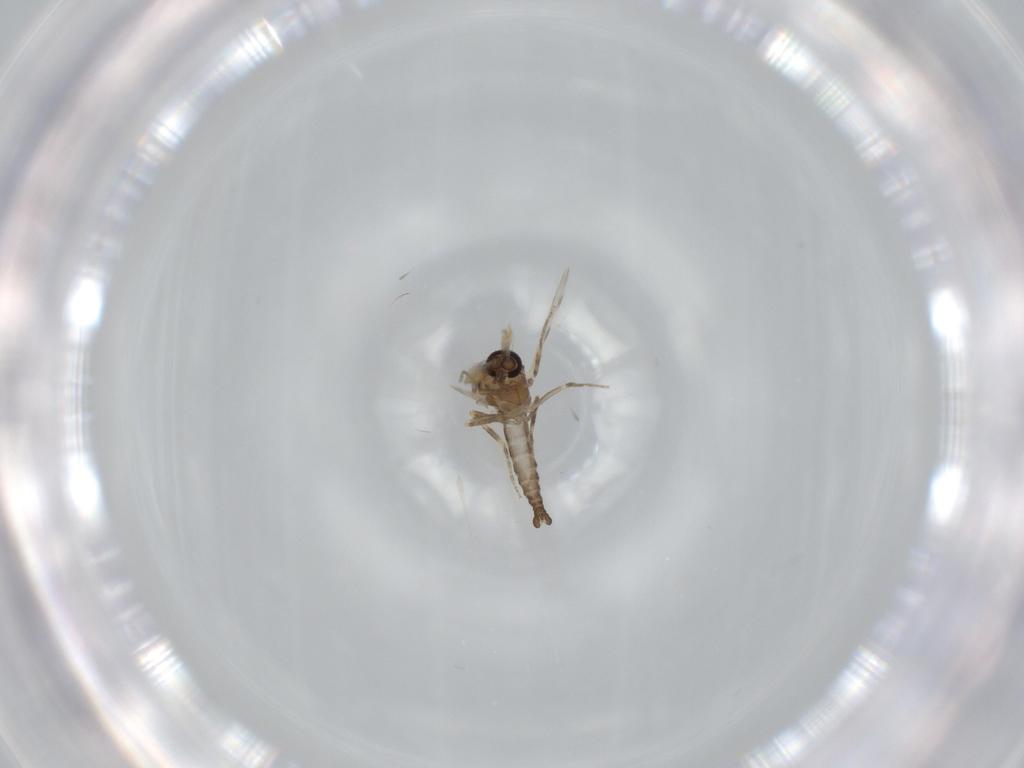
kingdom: Animalia
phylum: Arthropoda
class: Insecta
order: Diptera
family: Ceratopogonidae
